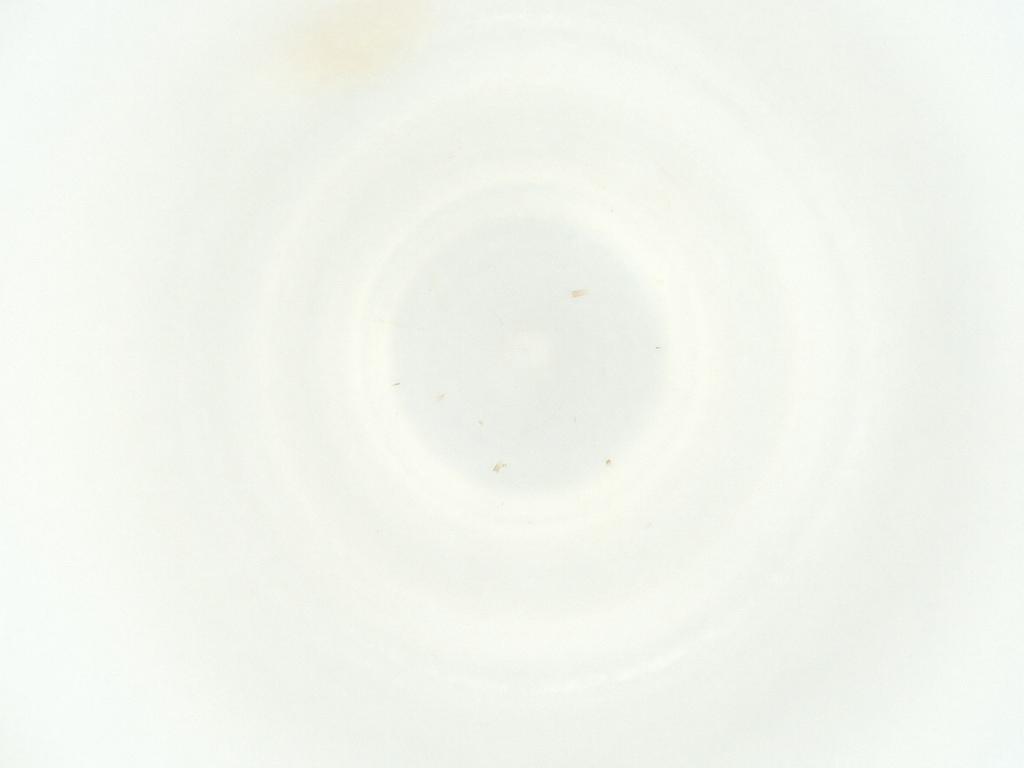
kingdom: Animalia
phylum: Arthropoda
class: Insecta
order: Hemiptera
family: Miridae
